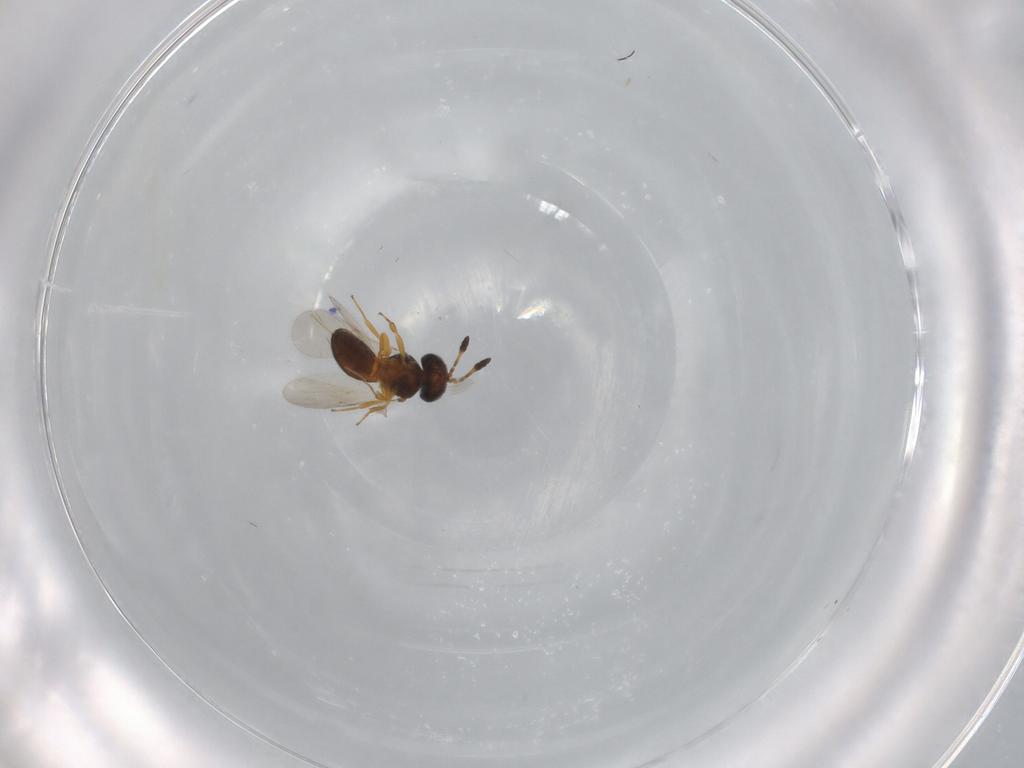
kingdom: Animalia
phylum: Arthropoda
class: Insecta
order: Hymenoptera
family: Scelionidae
